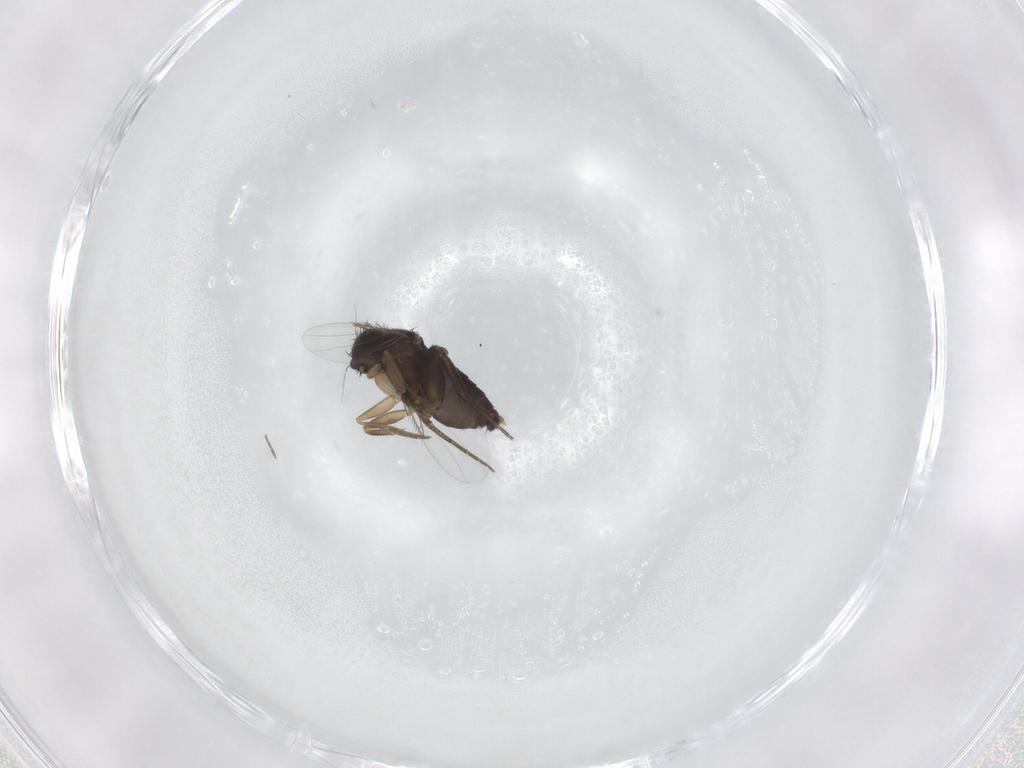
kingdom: Animalia
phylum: Arthropoda
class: Insecta
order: Diptera
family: Phoridae
